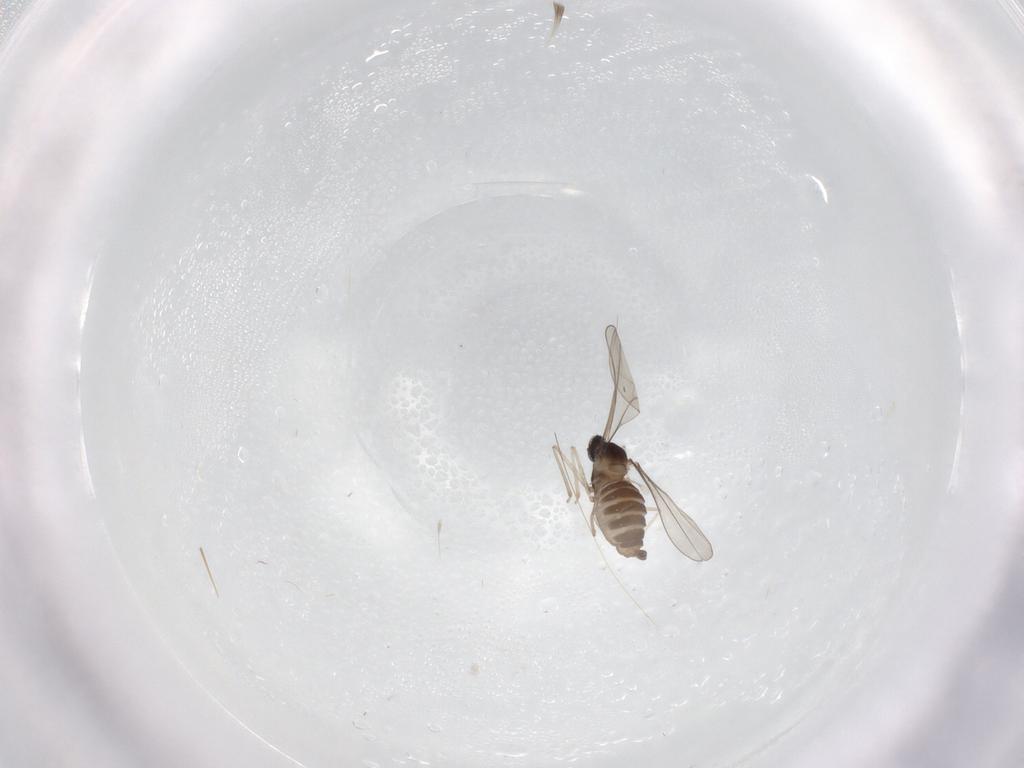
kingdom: Animalia
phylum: Arthropoda
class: Insecta
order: Diptera
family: Cecidomyiidae
